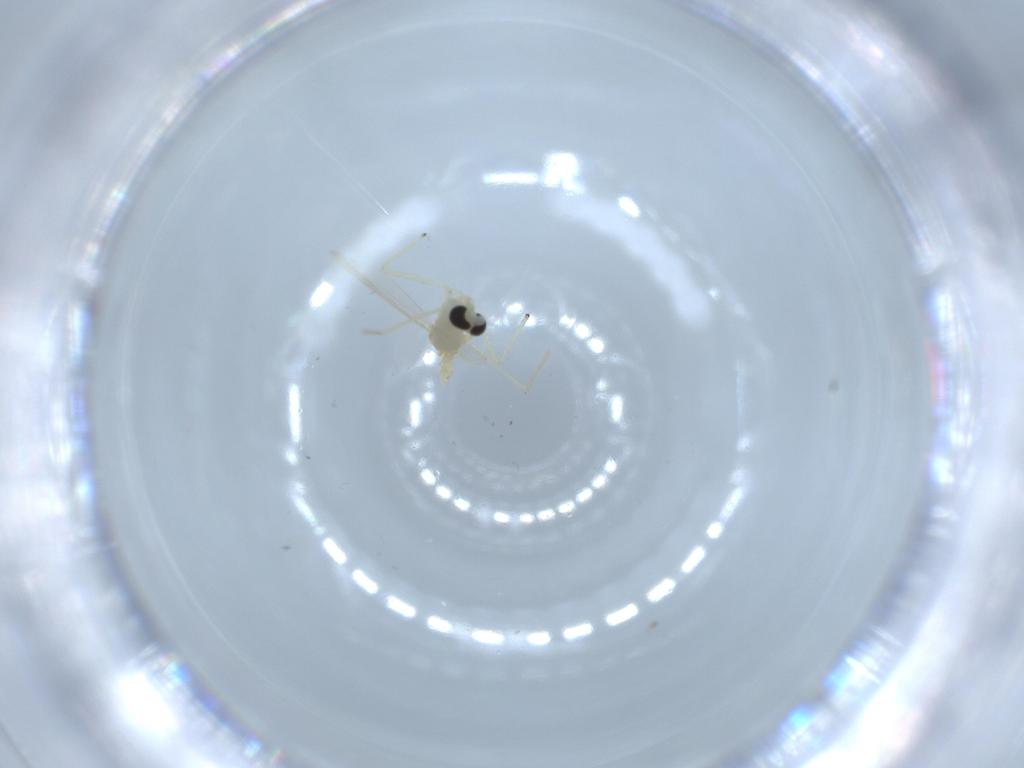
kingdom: Animalia
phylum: Arthropoda
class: Insecta
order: Diptera
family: Chironomidae
